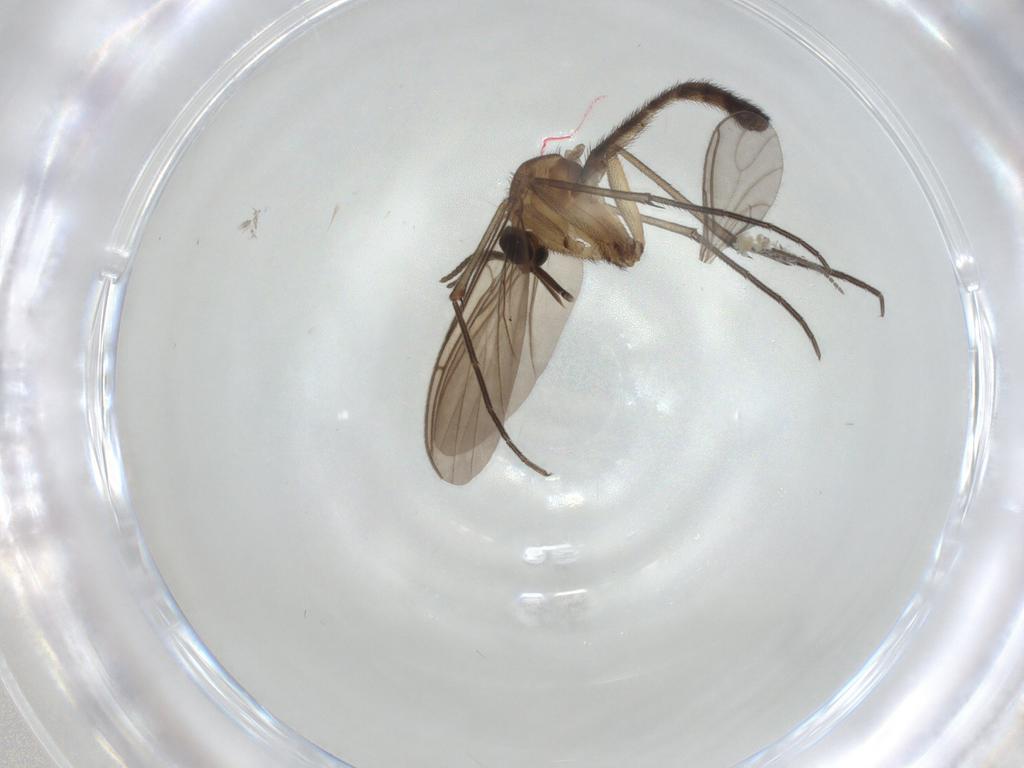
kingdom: Animalia
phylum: Arthropoda
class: Insecta
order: Diptera
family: Keroplatidae
